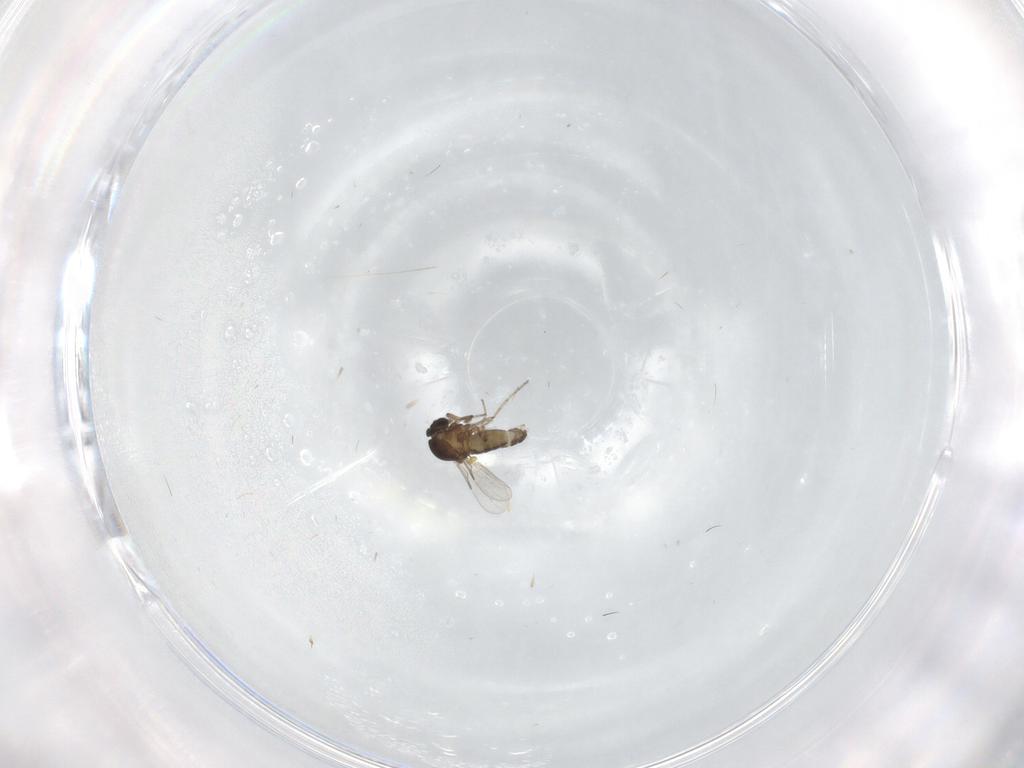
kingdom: Animalia
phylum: Arthropoda
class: Insecta
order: Diptera
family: Ceratopogonidae
